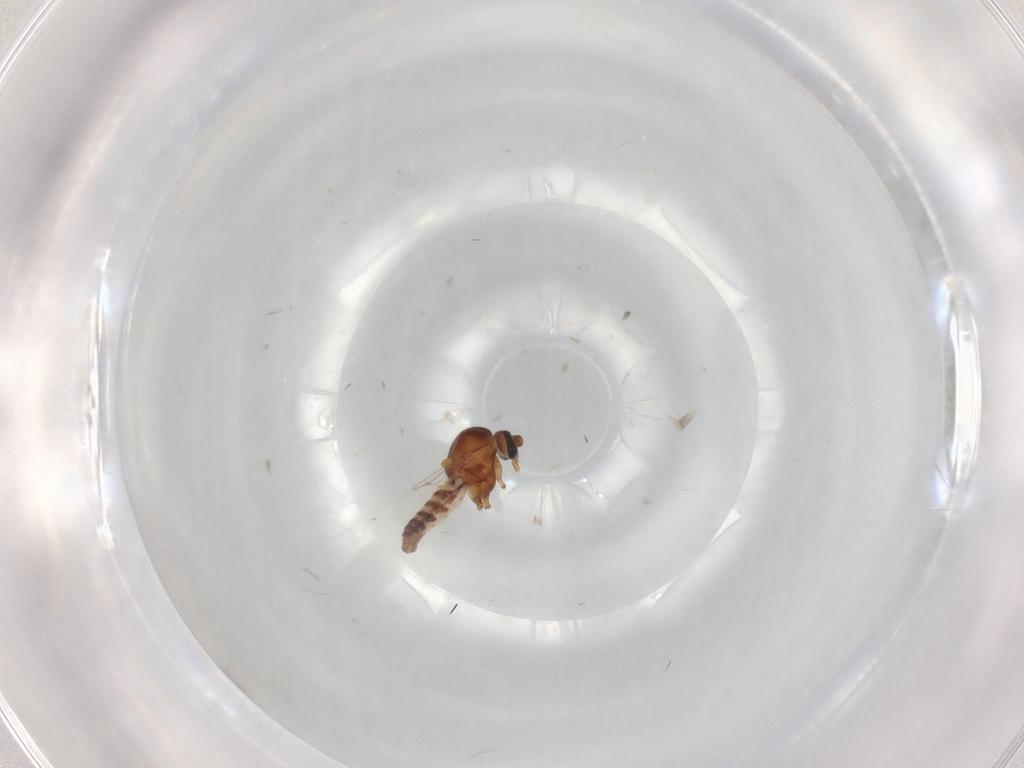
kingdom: Animalia
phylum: Arthropoda
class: Insecta
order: Diptera
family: Ceratopogonidae
